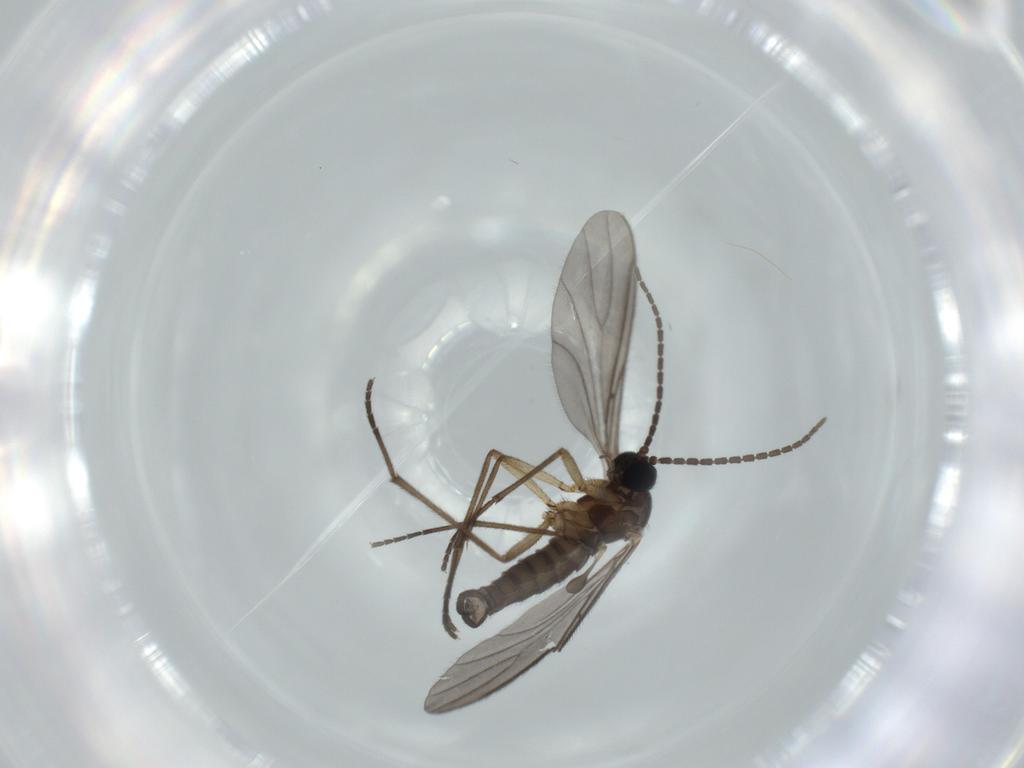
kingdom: Animalia
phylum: Arthropoda
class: Insecta
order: Diptera
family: Sciaridae
